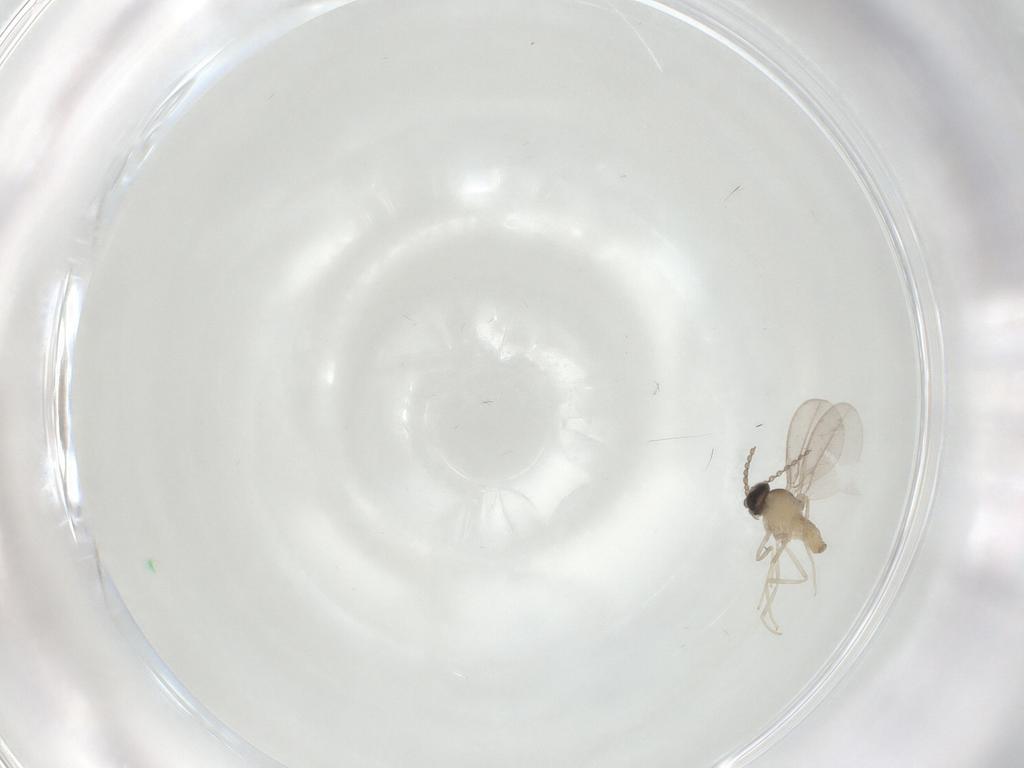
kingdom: Animalia
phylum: Arthropoda
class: Insecta
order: Diptera
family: Cecidomyiidae
